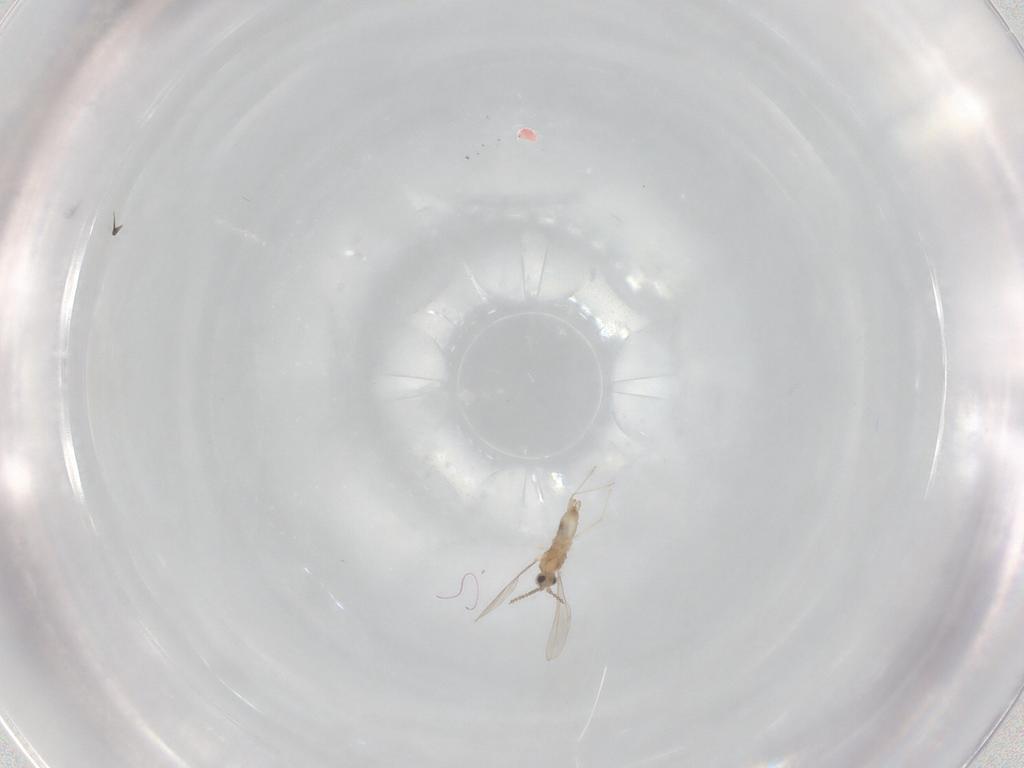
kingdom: Animalia
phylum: Arthropoda
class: Insecta
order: Diptera
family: Cecidomyiidae
